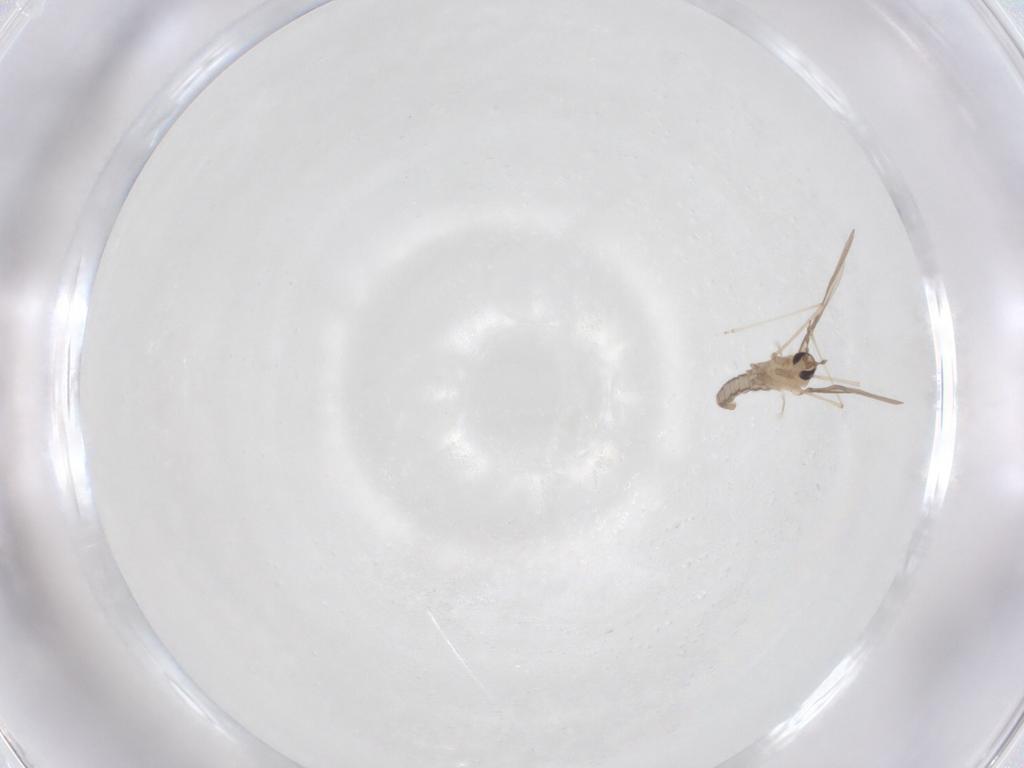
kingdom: Animalia
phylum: Arthropoda
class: Insecta
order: Diptera
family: Cecidomyiidae
